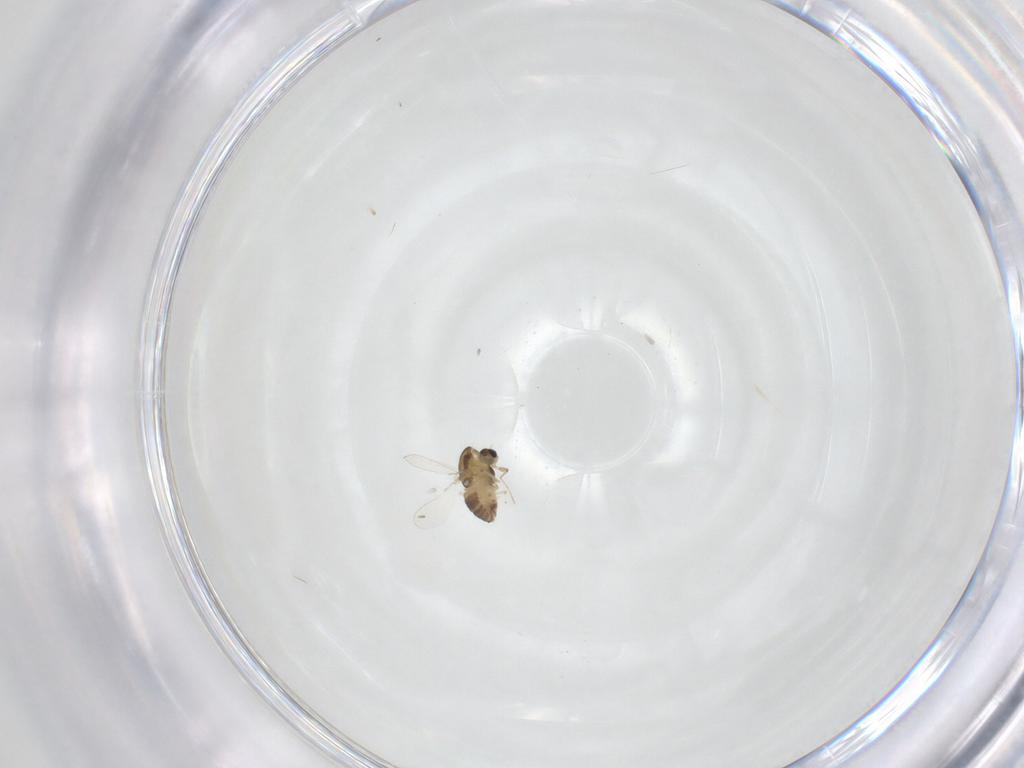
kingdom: Animalia
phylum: Arthropoda
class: Insecta
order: Diptera
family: Chironomidae
